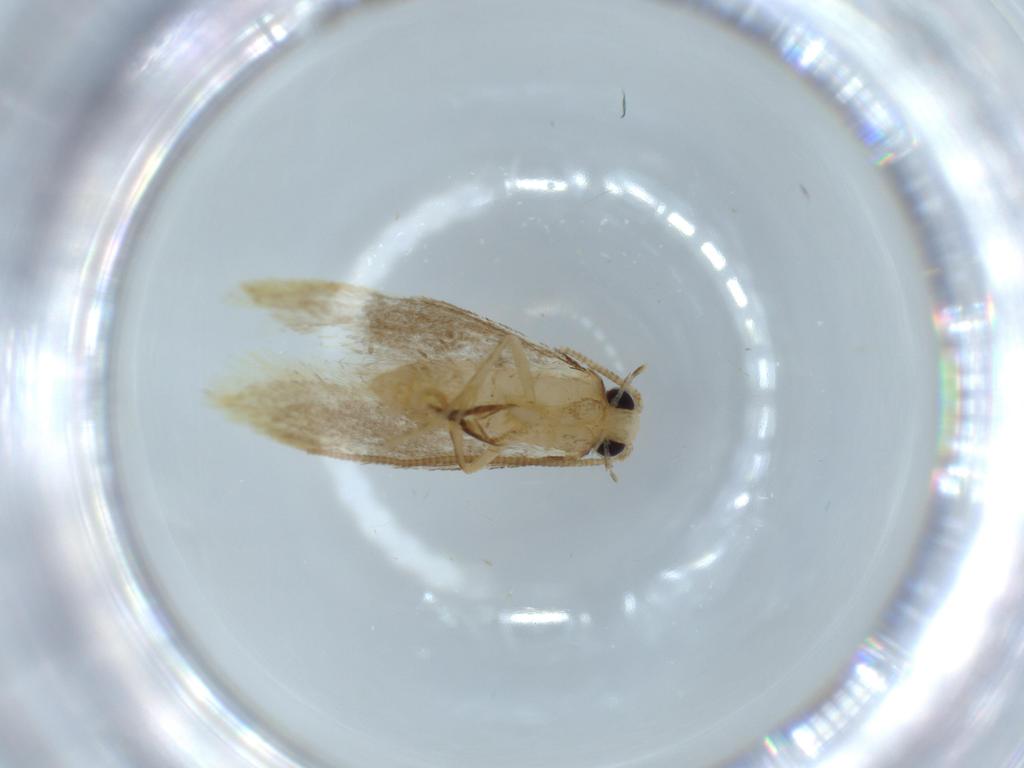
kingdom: Animalia
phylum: Arthropoda
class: Insecta
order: Lepidoptera
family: Tineidae
